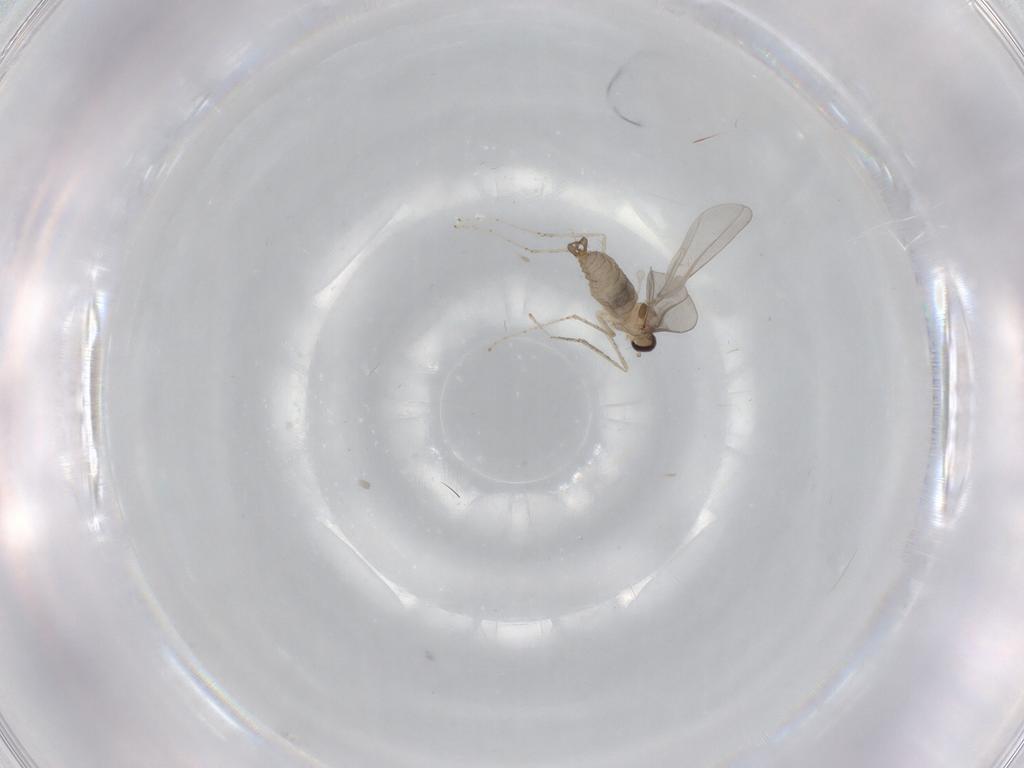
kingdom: Animalia
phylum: Arthropoda
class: Insecta
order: Diptera
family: Cecidomyiidae
